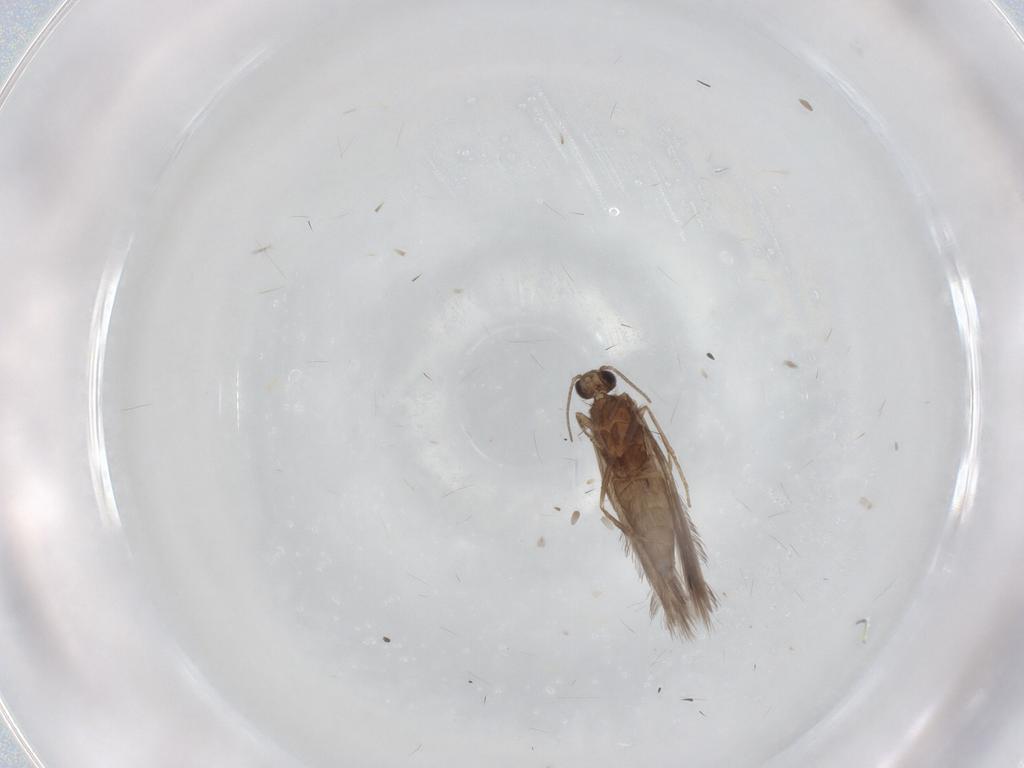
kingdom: Animalia
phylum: Arthropoda
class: Insecta
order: Trichoptera
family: Hydroptilidae
